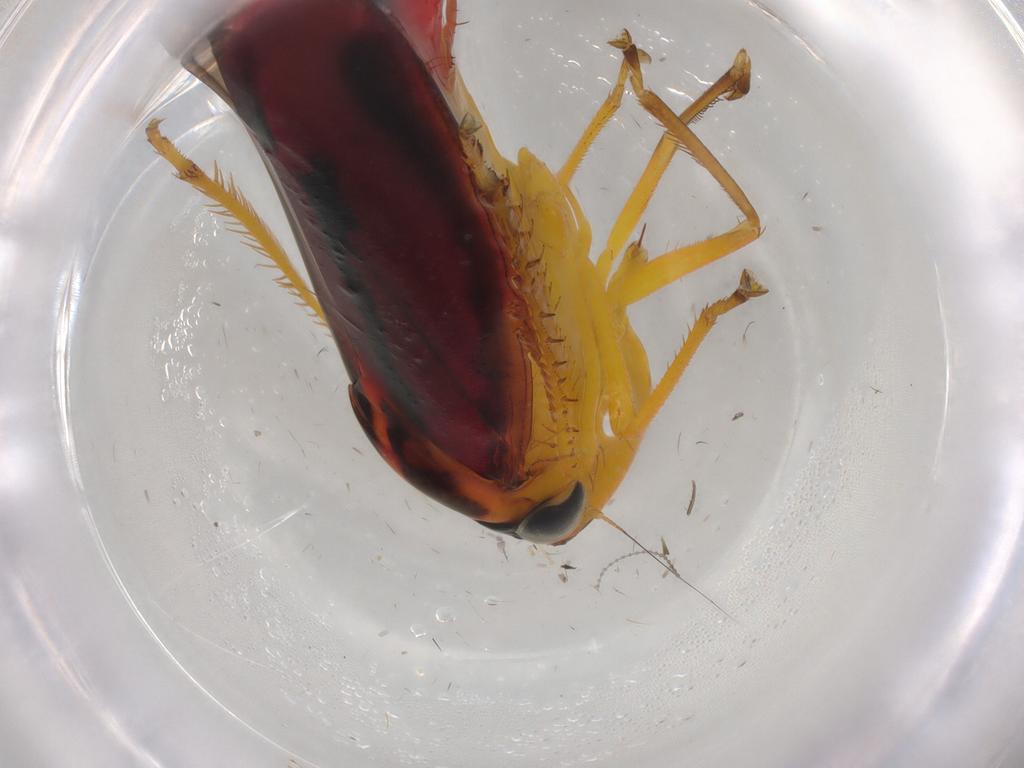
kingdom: Animalia
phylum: Arthropoda
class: Insecta
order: Hemiptera
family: Cicadellidae
